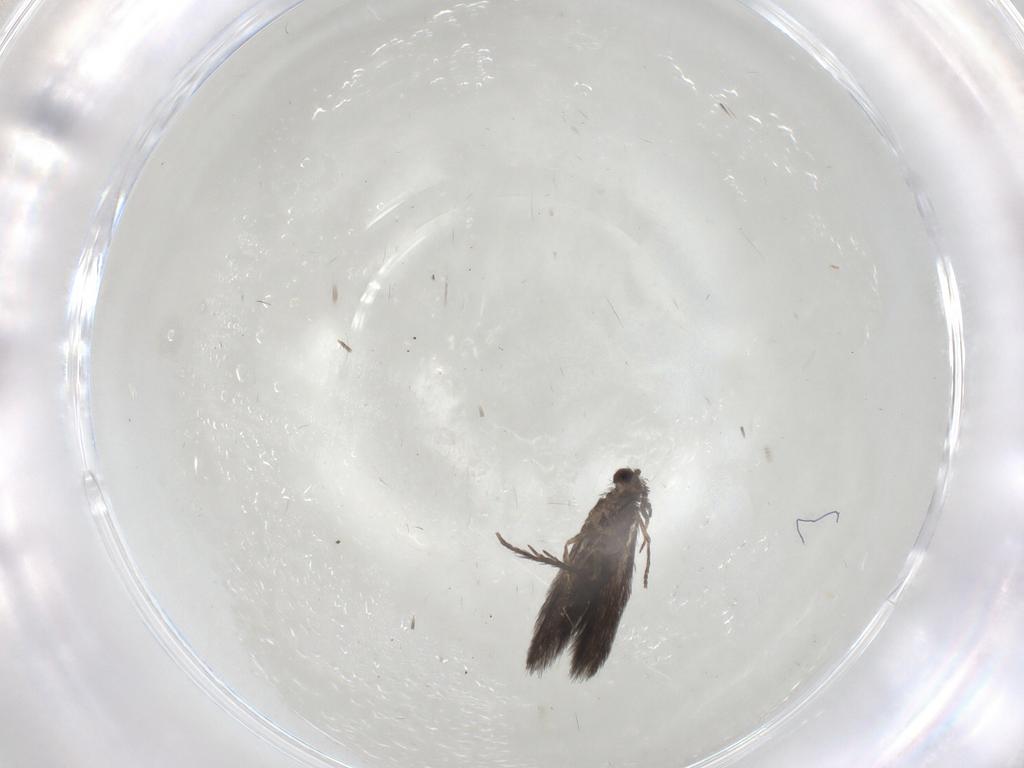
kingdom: Animalia
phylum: Arthropoda
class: Insecta
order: Trichoptera
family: Hydroptilidae
